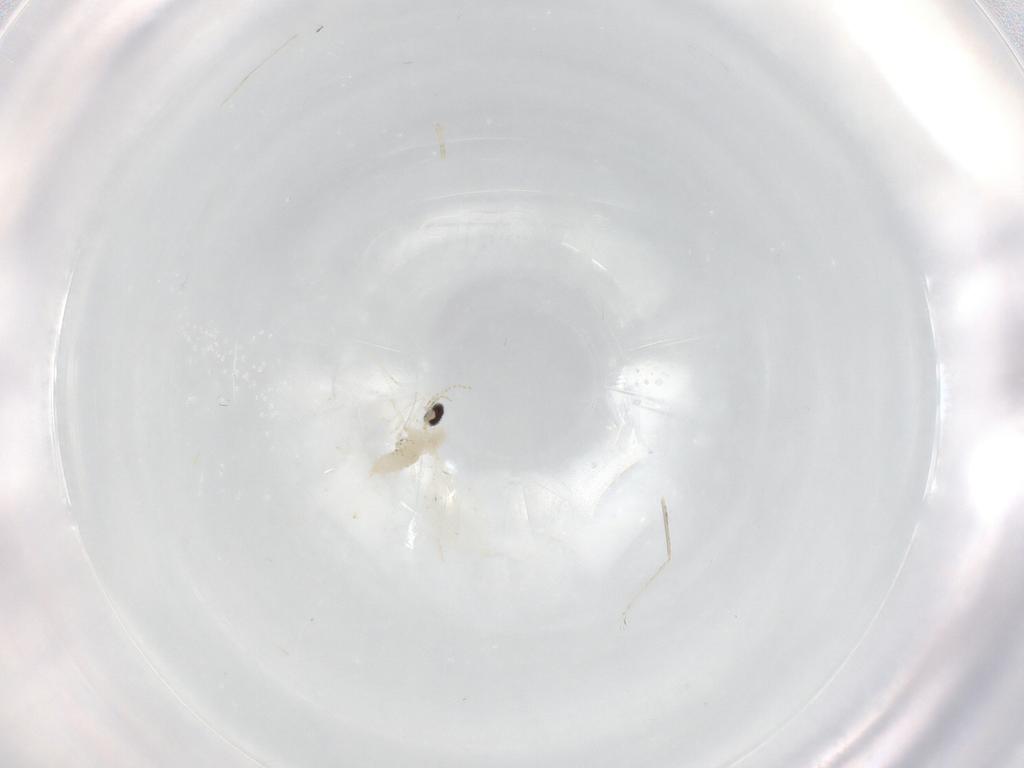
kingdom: Animalia
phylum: Arthropoda
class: Insecta
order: Diptera
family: Cecidomyiidae
